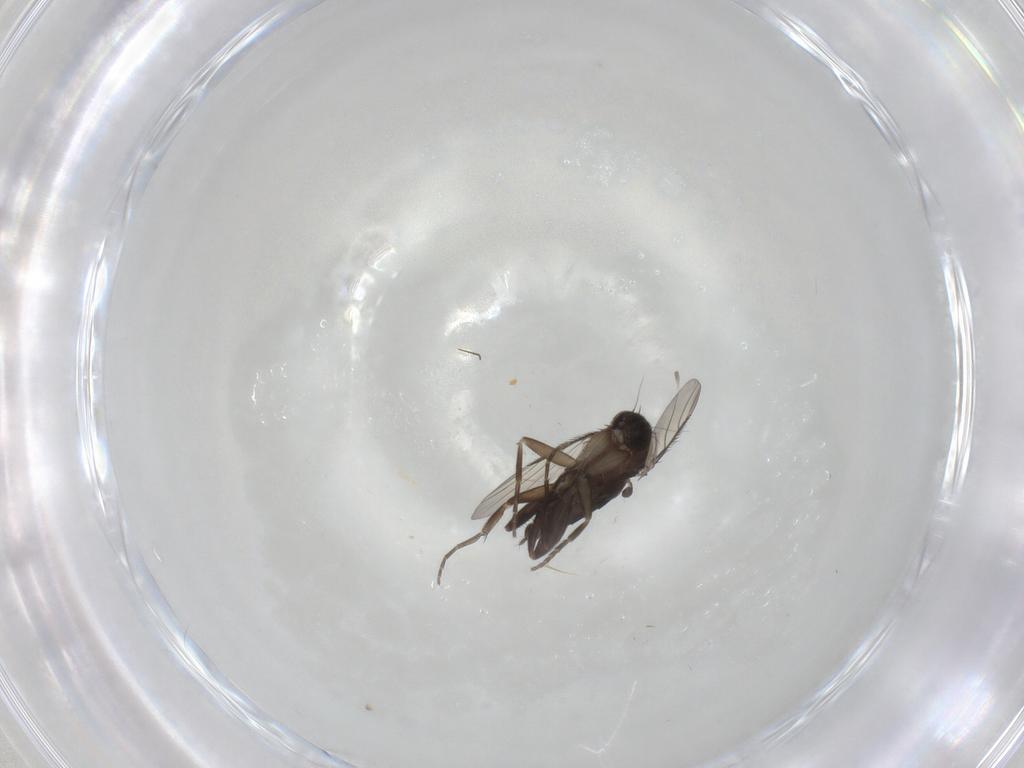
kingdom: Animalia
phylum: Arthropoda
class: Insecta
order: Diptera
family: Phoridae
